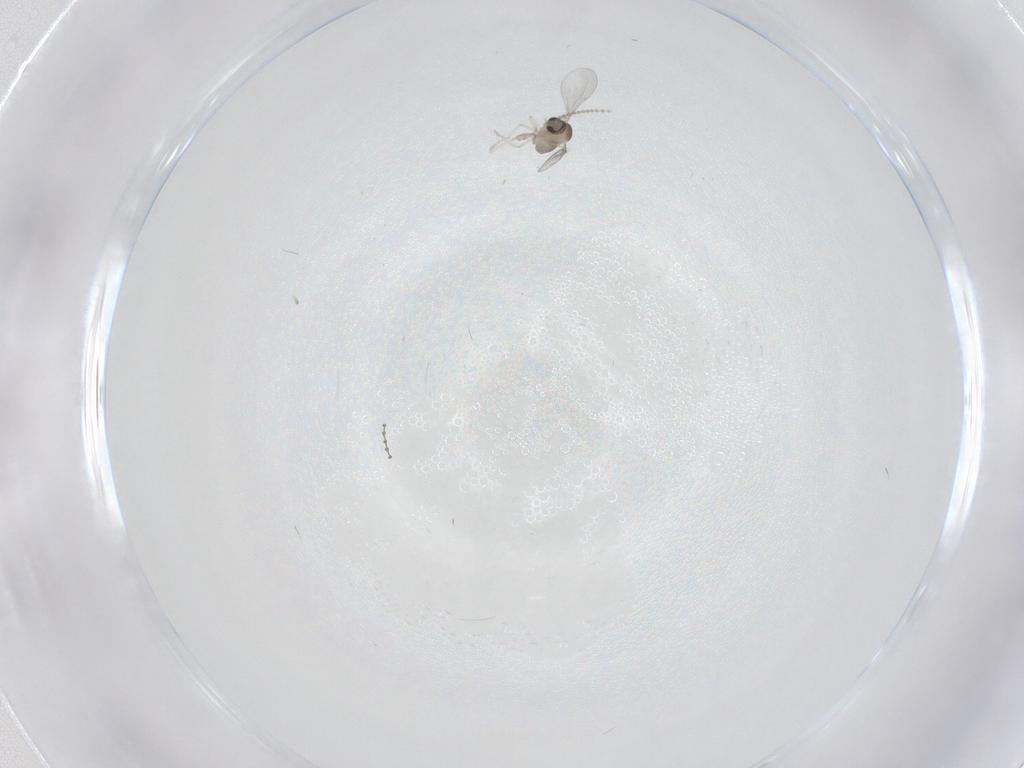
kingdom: Animalia
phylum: Arthropoda
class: Insecta
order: Diptera
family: Cecidomyiidae
